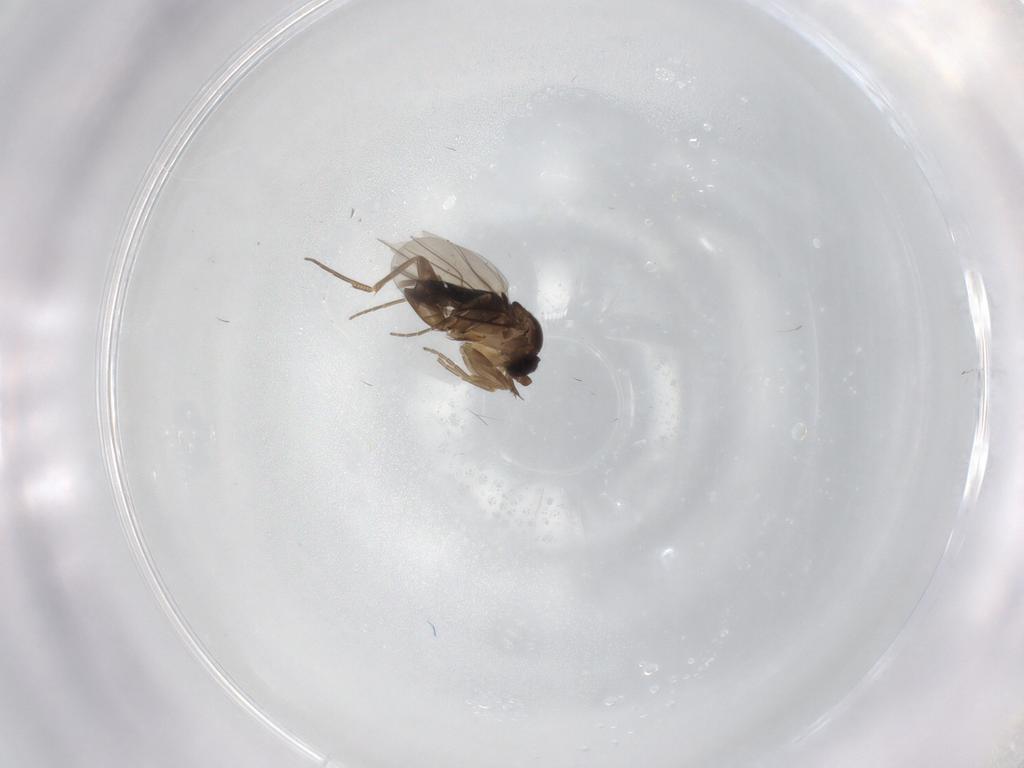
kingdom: Animalia
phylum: Arthropoda
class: Insecta
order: Diptera
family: Phoridae
